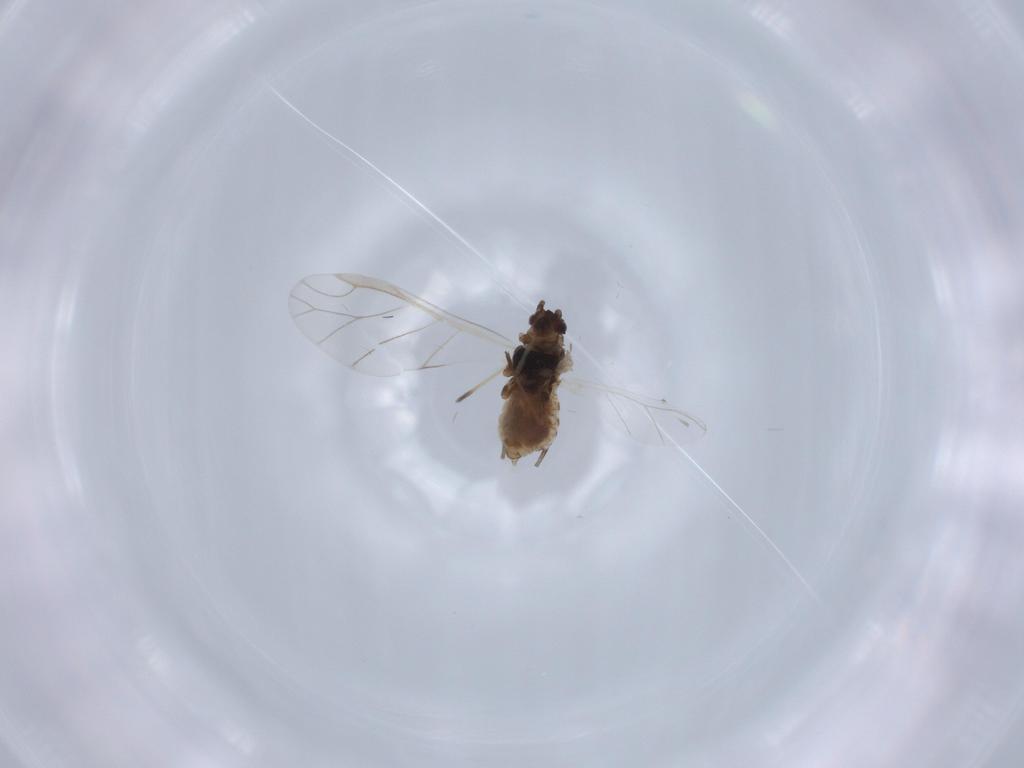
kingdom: Animalia
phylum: Arthropoda
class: Insecta
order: Hemiptera
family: Aphididae
